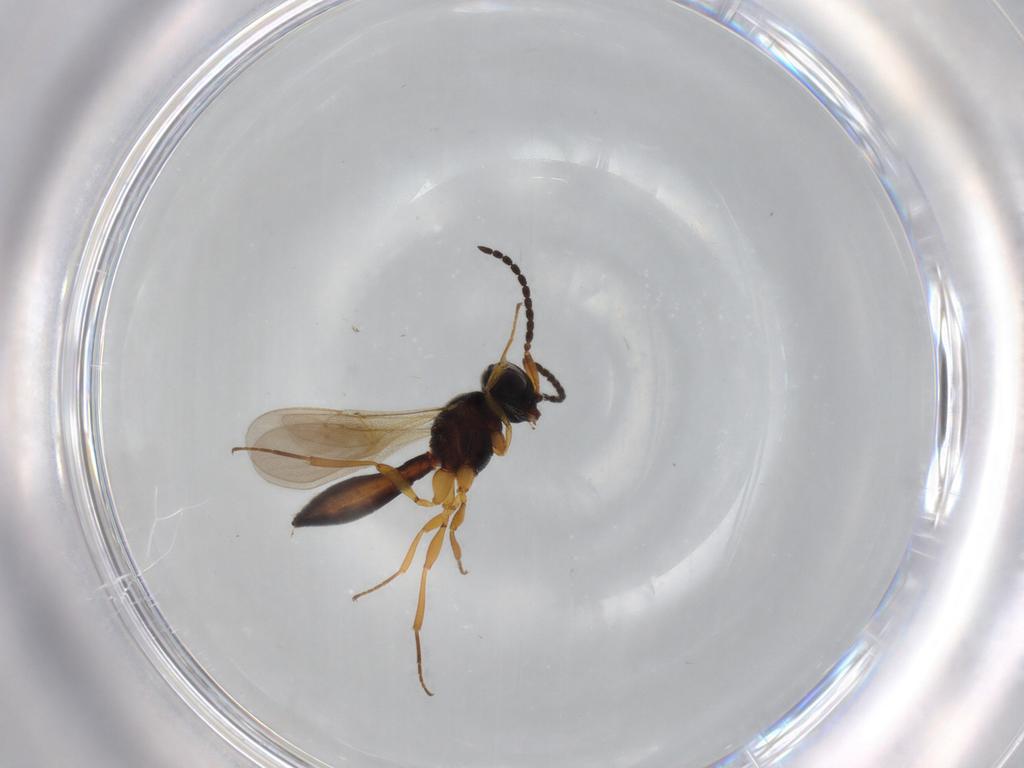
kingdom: Animalia
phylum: Arthropoda
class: Insecta
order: Hymenoptera
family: Scelionidae
